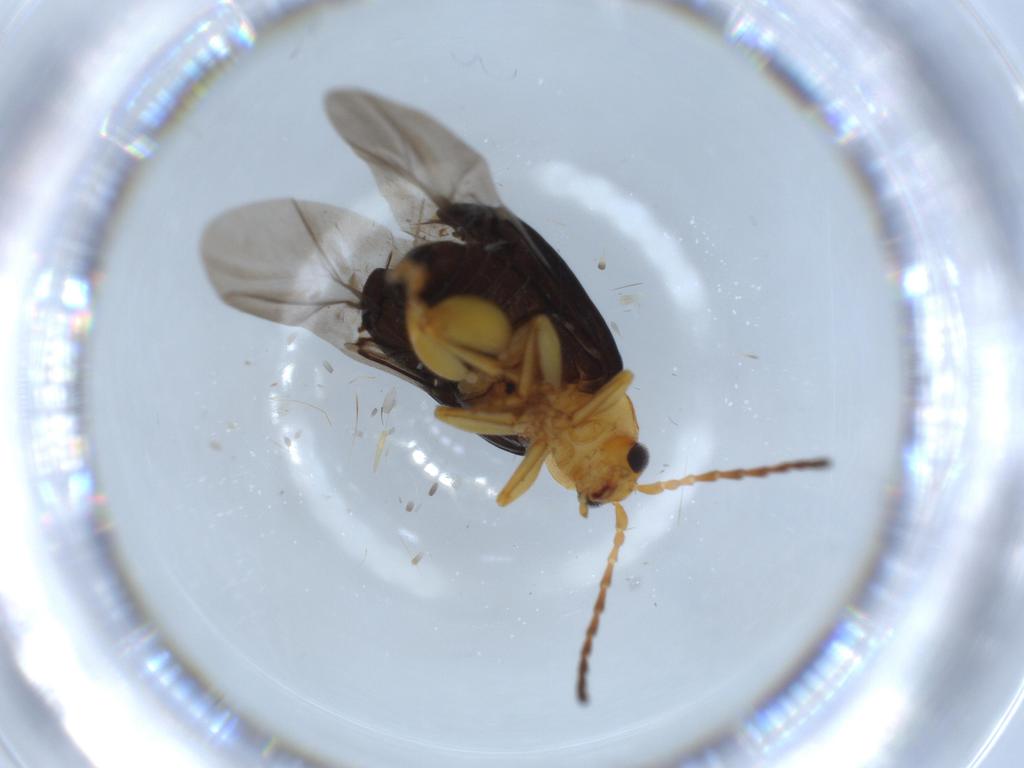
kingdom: Animalia
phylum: Arthropoda
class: Insecta
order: Coleoptera
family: Chrysomelidae
